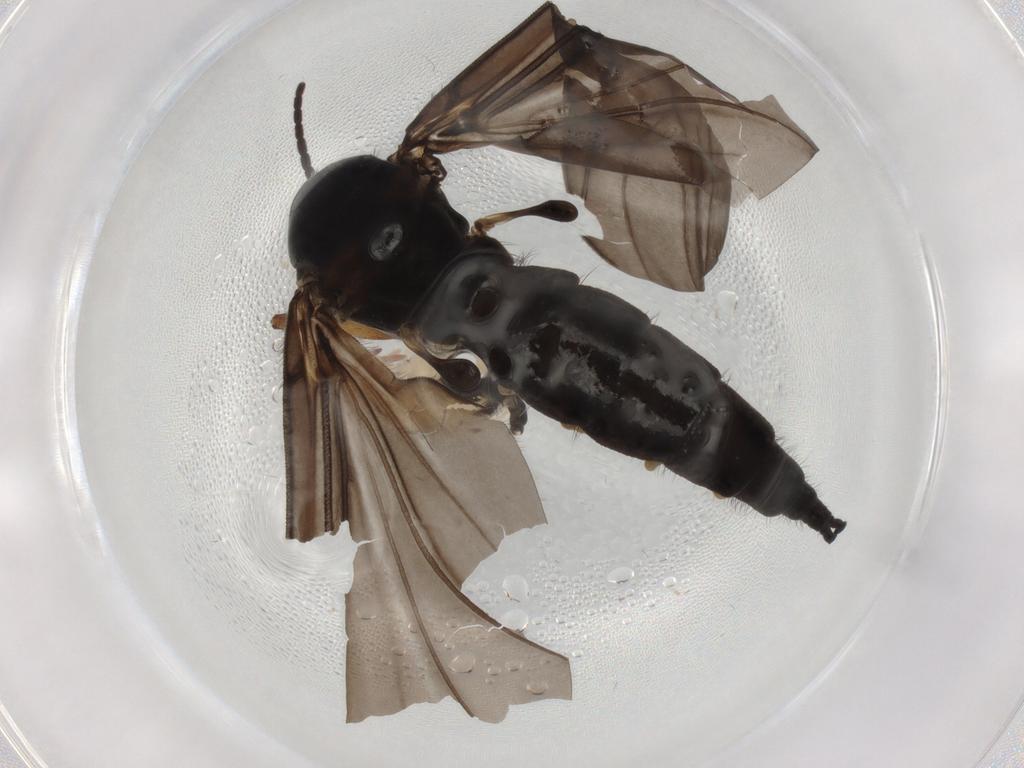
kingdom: Animalia
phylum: Arthropoda
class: Insecta
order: Diptera
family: Sciaridae
